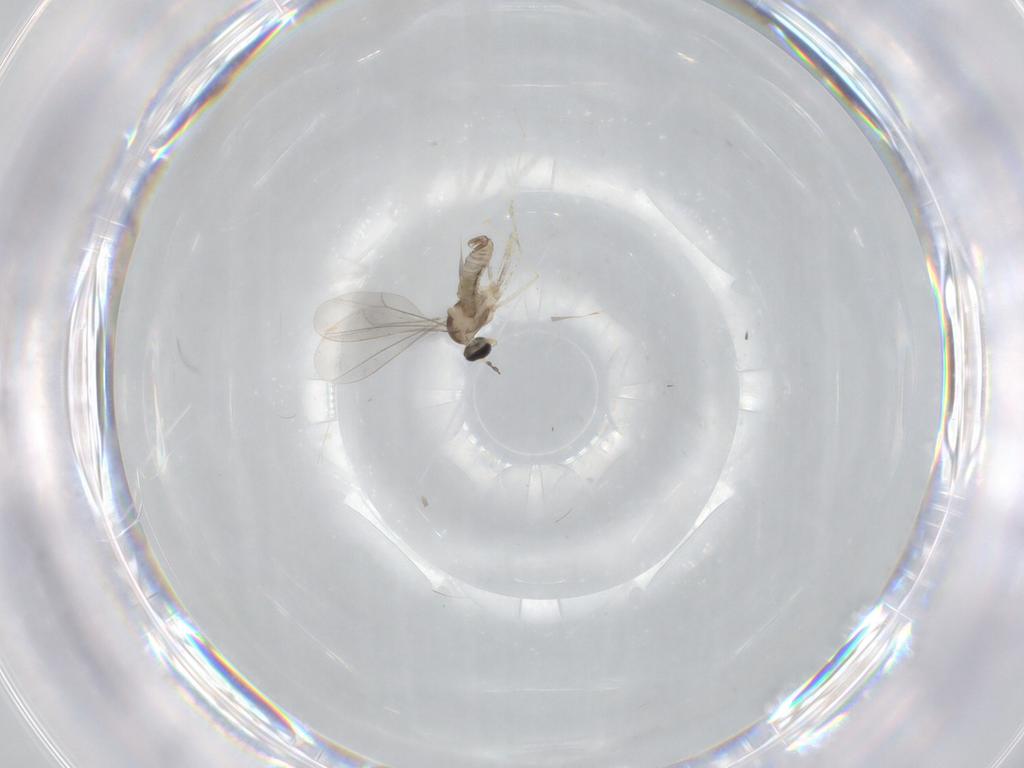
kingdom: Animalia
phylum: Arthropoda
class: Insecta
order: Diptera
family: Cecidomyiidae
